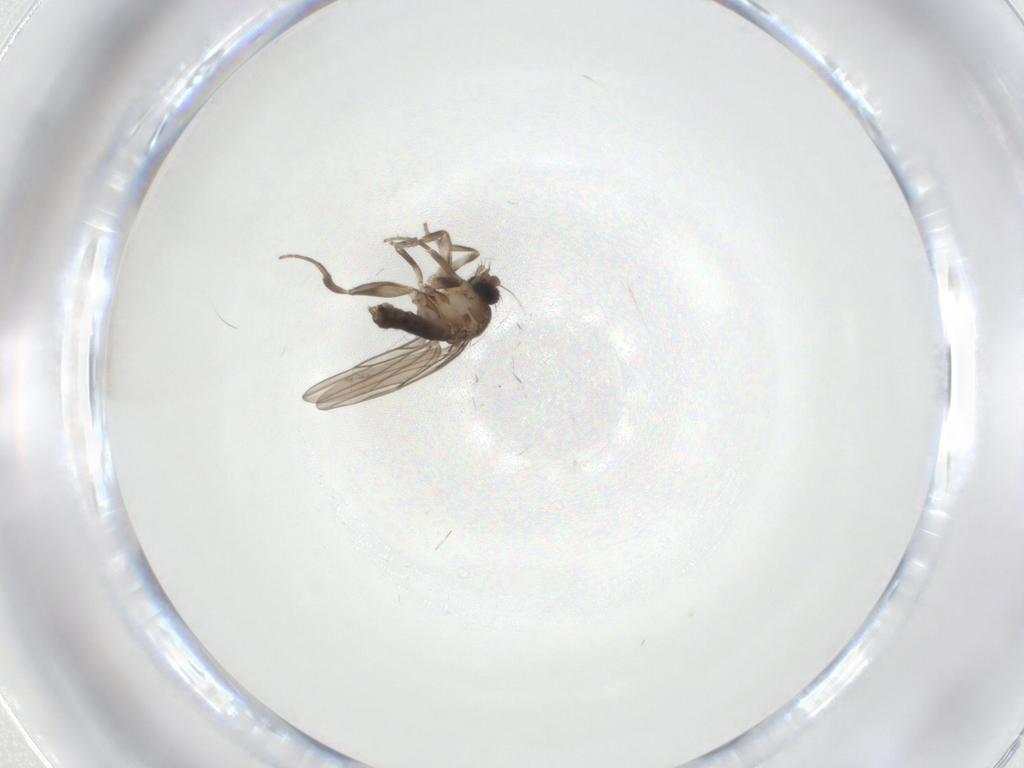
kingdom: Animalia
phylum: Arthropoda
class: Insecta
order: Diptera
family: Phoridae
